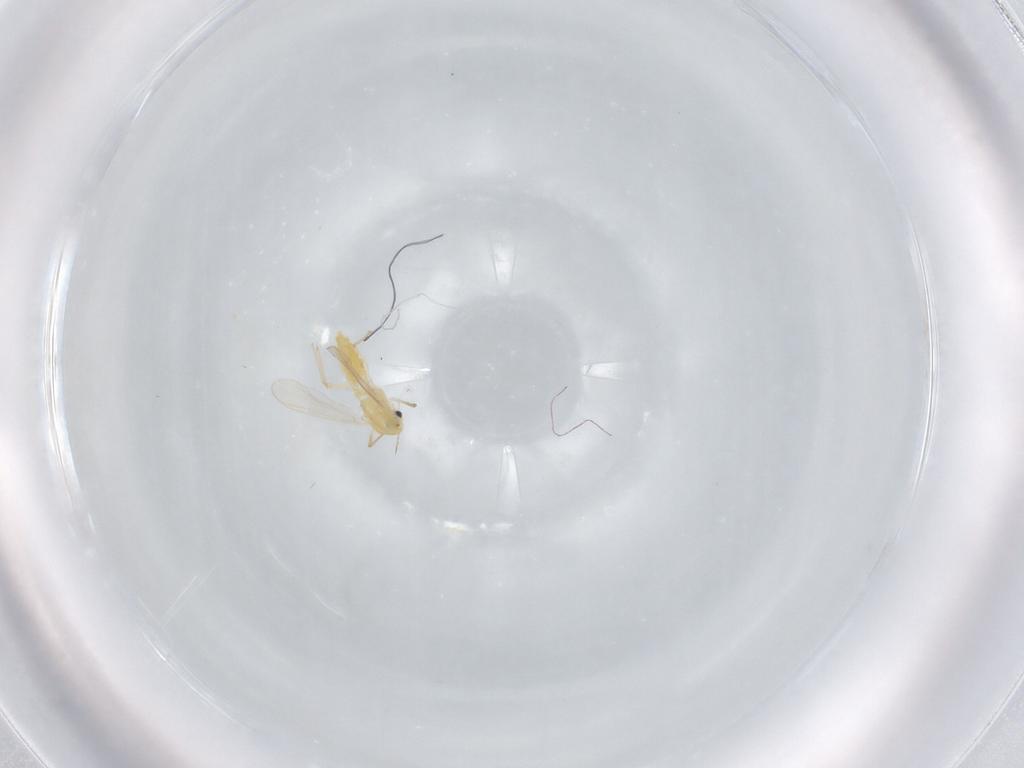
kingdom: Animalia
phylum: Arthropoda
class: Insecta
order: Diptera
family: Chironomidae
